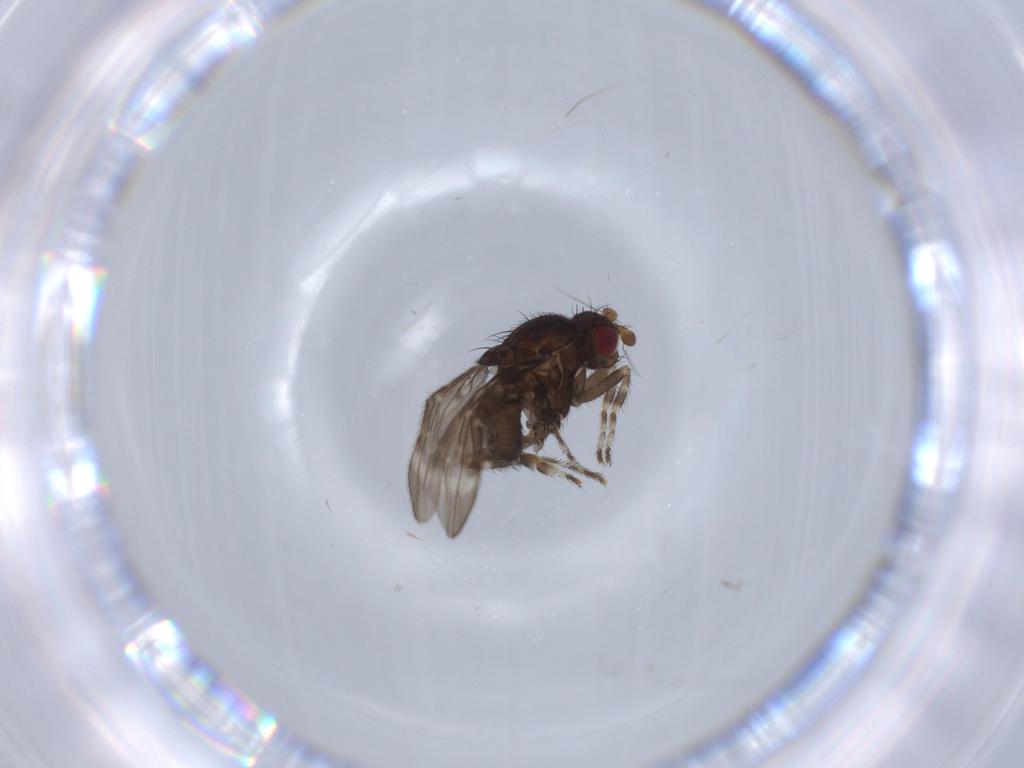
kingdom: Animalia
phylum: Arthropoda
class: Insecta
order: Diptera
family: Sphaeroceridae
